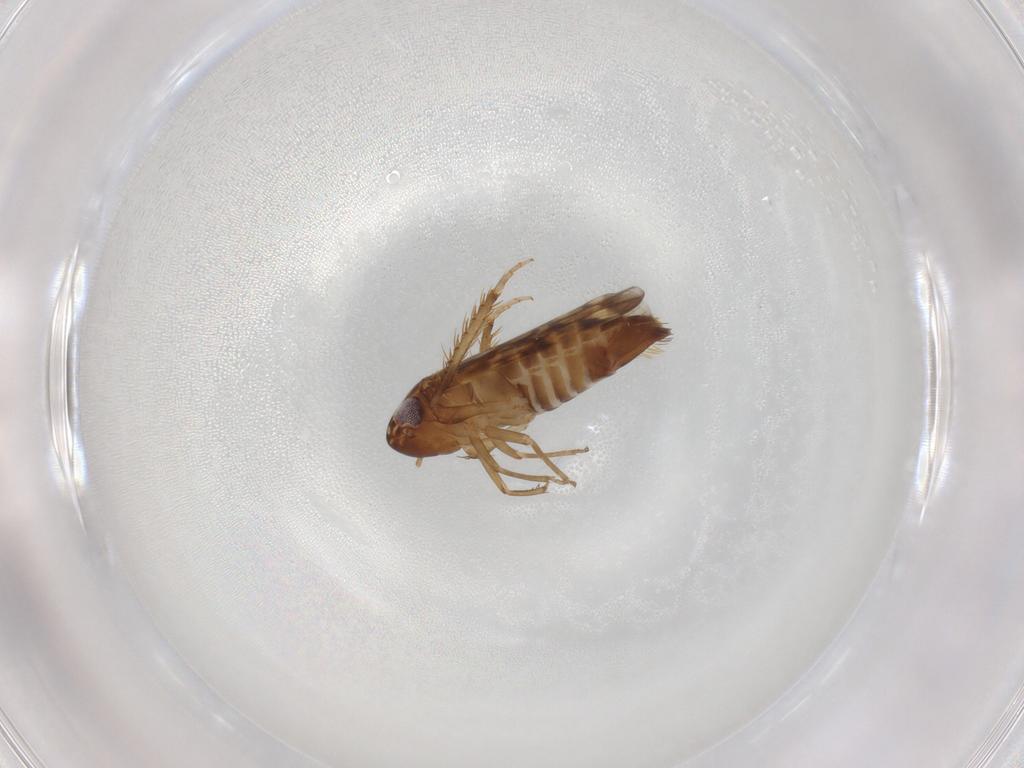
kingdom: Animalia
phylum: Arthropoda
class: Insecta
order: Hemiptera
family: Cicadellidae
